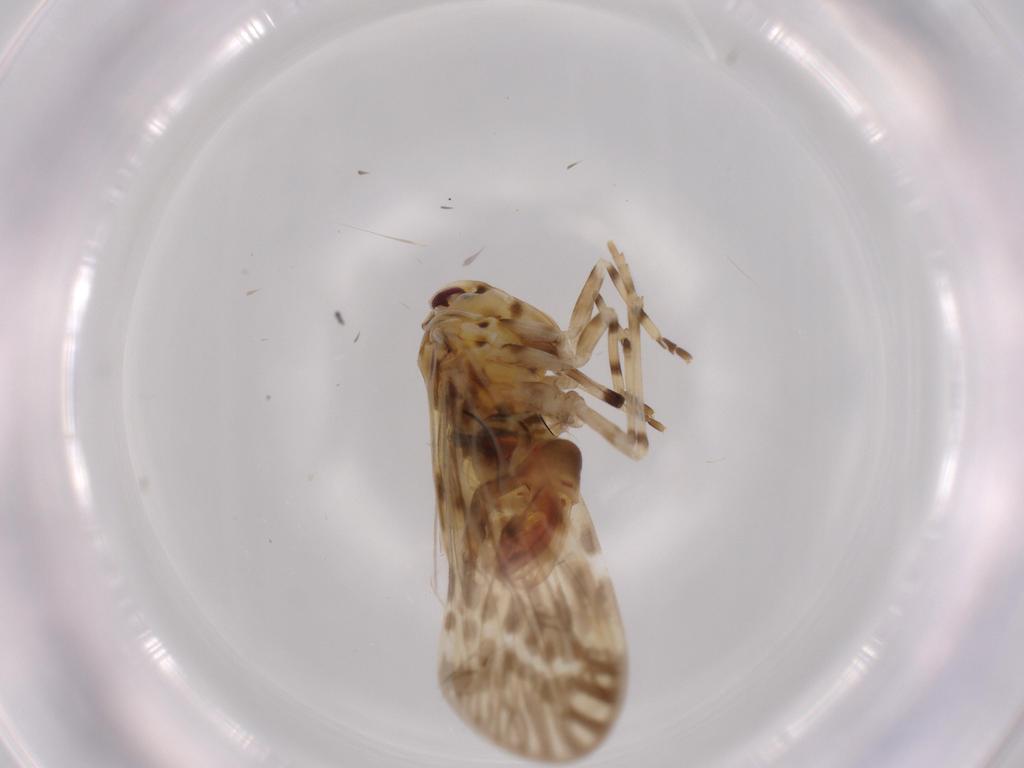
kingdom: Animalia
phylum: Arthropoda
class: Insecta
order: Hemiptera
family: Derbidae
